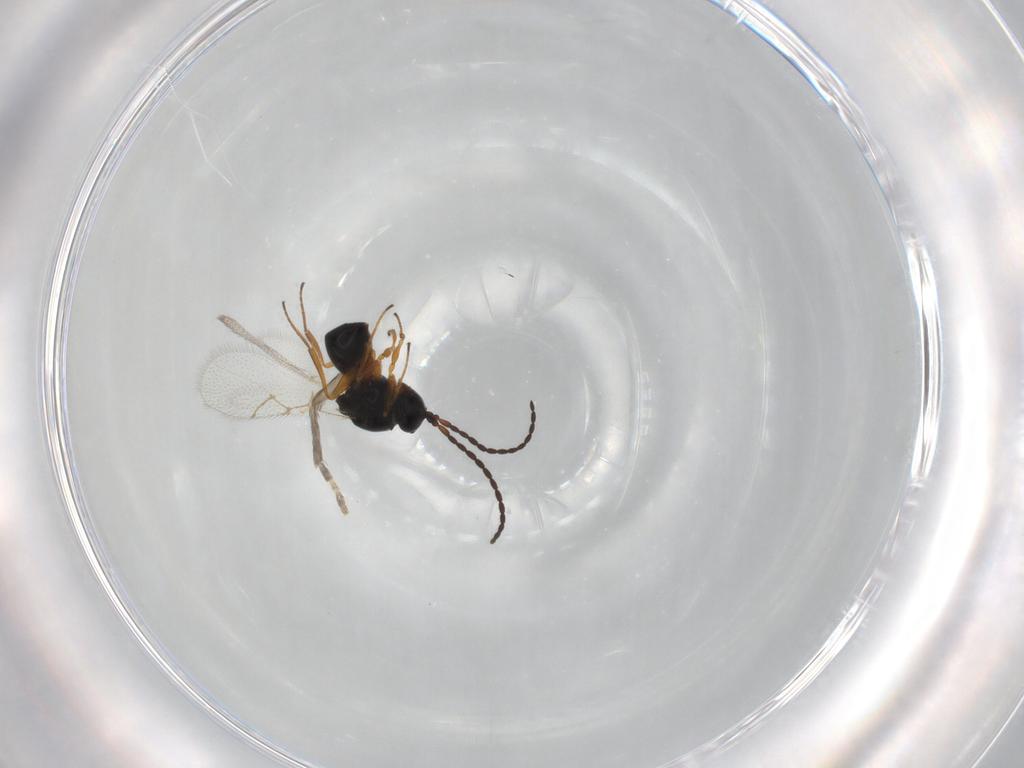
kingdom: Animalia
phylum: Arthropoda
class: Insecta
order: Hymenoptera
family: Figitidae
